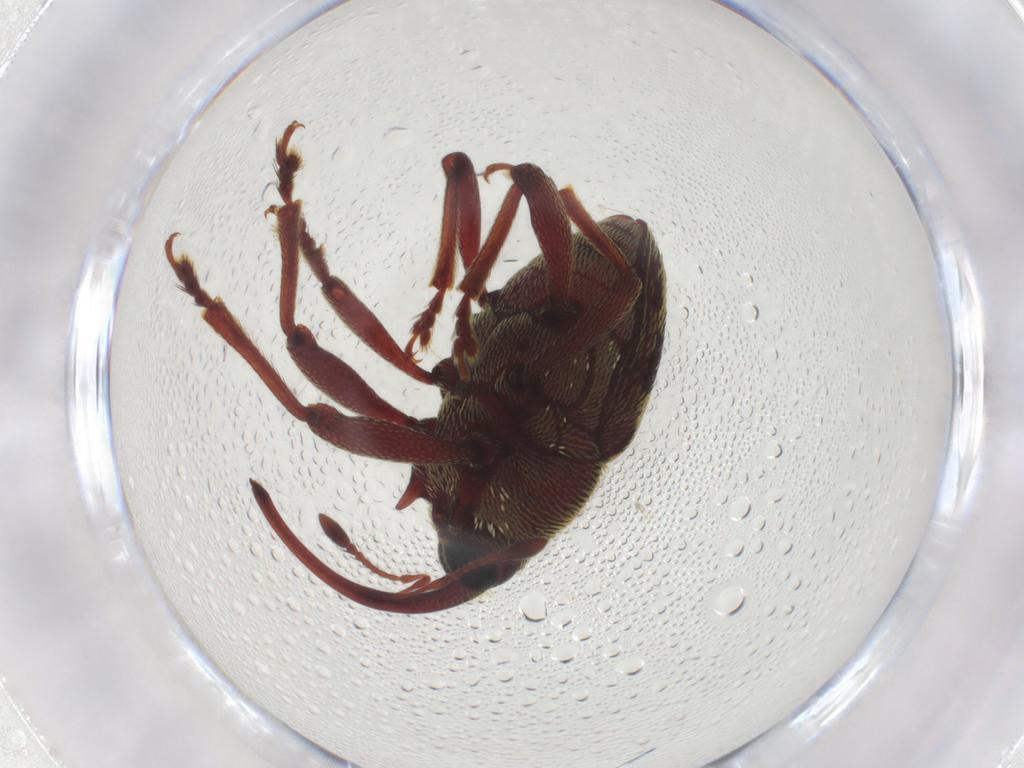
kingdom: Animalia
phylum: Arthropoda
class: Insecta
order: Coleoptera
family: Curculionidae
